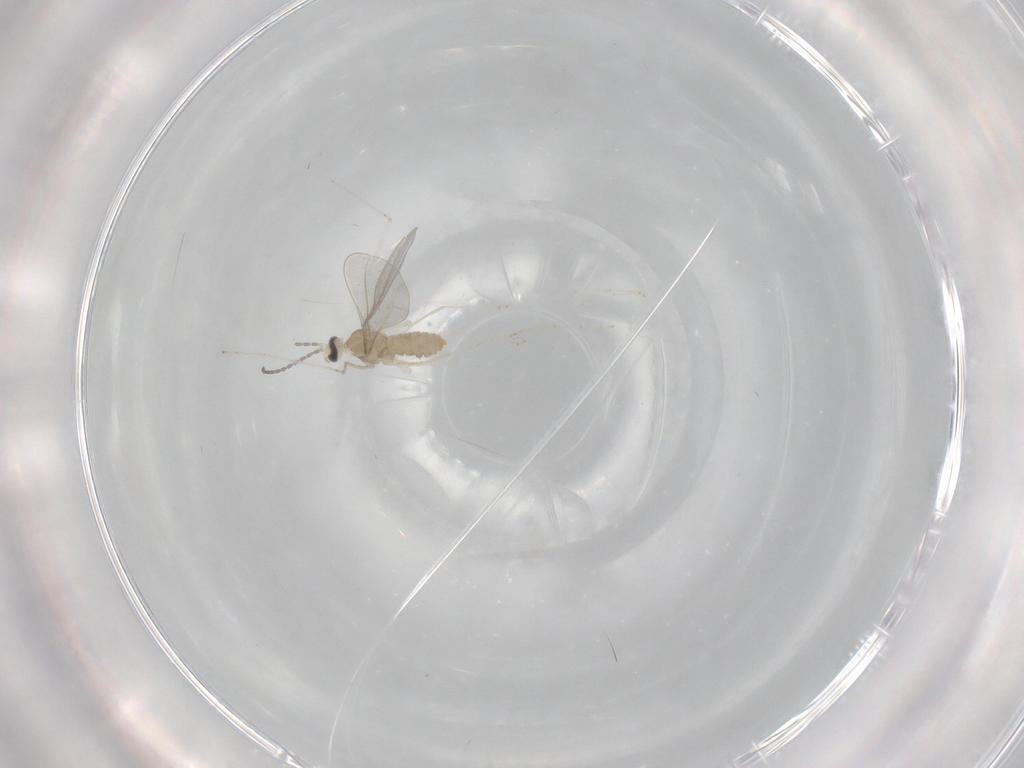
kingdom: Animalia
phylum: Arthropoda
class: Insecta
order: Diptera
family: Cecidomyiidae
